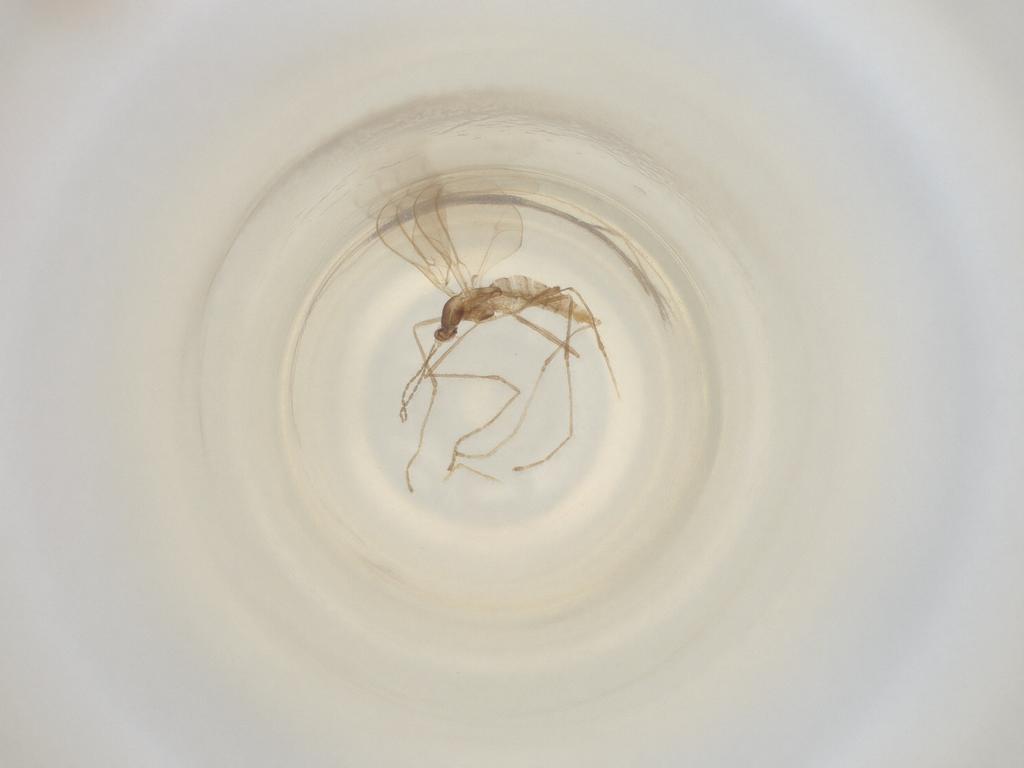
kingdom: Animalia
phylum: Arthropoda
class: Insecta
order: Diptera
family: Cecidomyiidae
